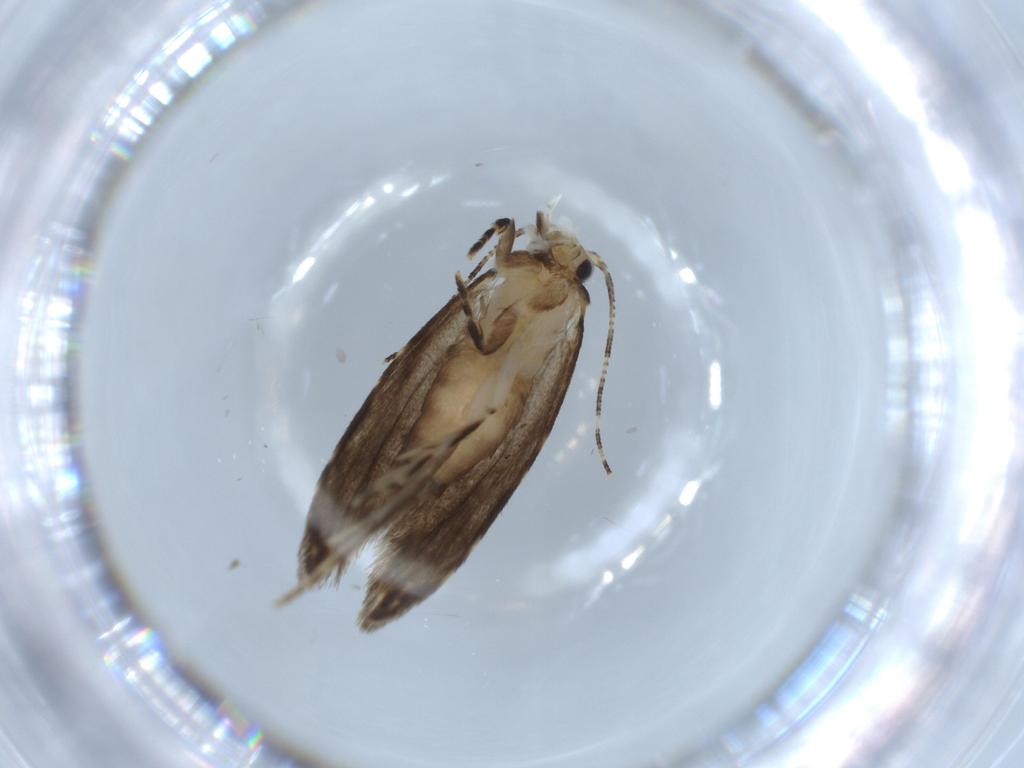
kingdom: Animalia
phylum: Arthropoda
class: Insecta
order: Lepidoptera
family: Tineidae
